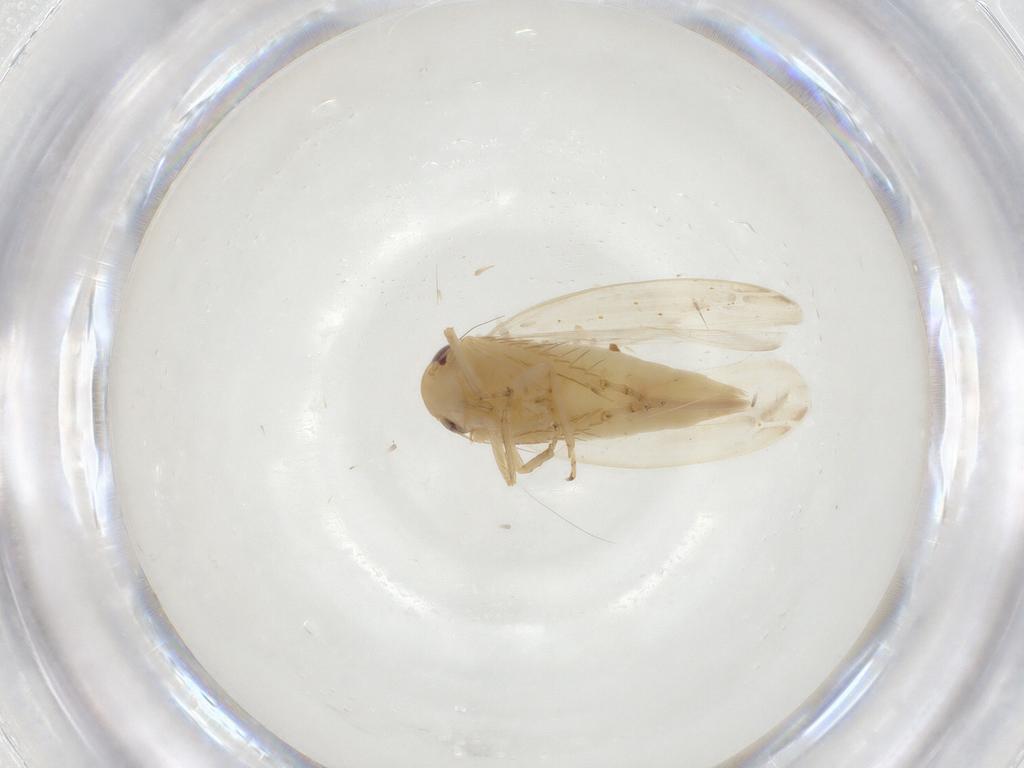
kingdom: Animalia
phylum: Arthropoda
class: Insecta
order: Hemiptera
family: Cicadellidae
